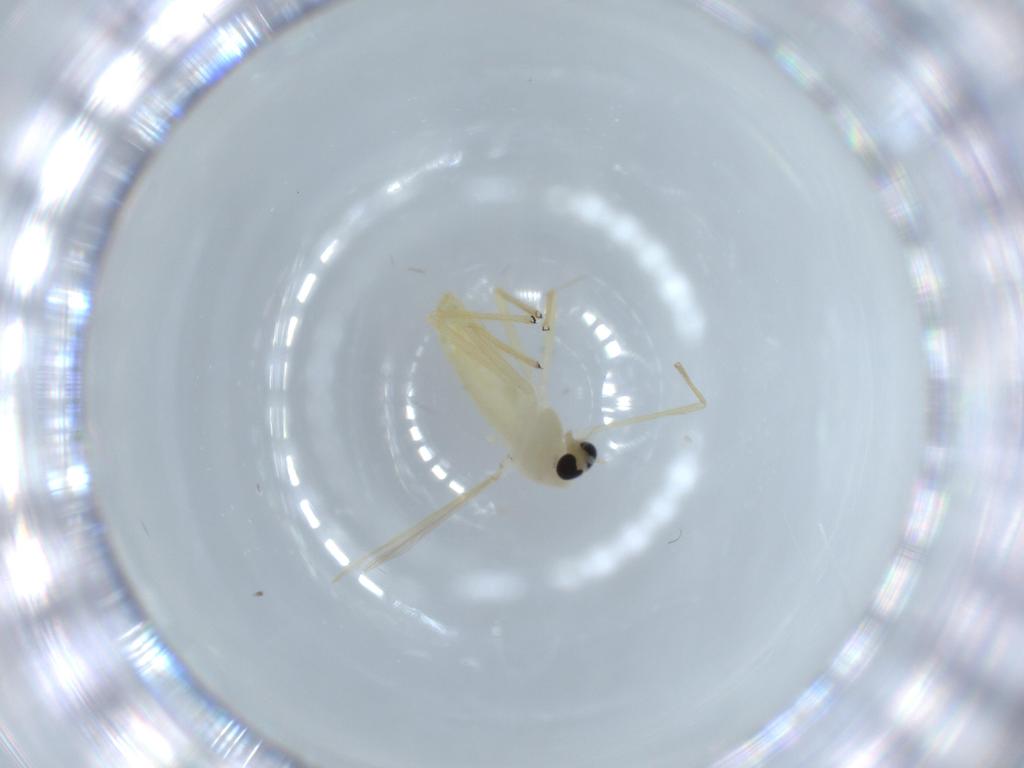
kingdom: Animalia
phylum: Arthropoda
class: Insecta
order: Diptera
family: Chironomidae
